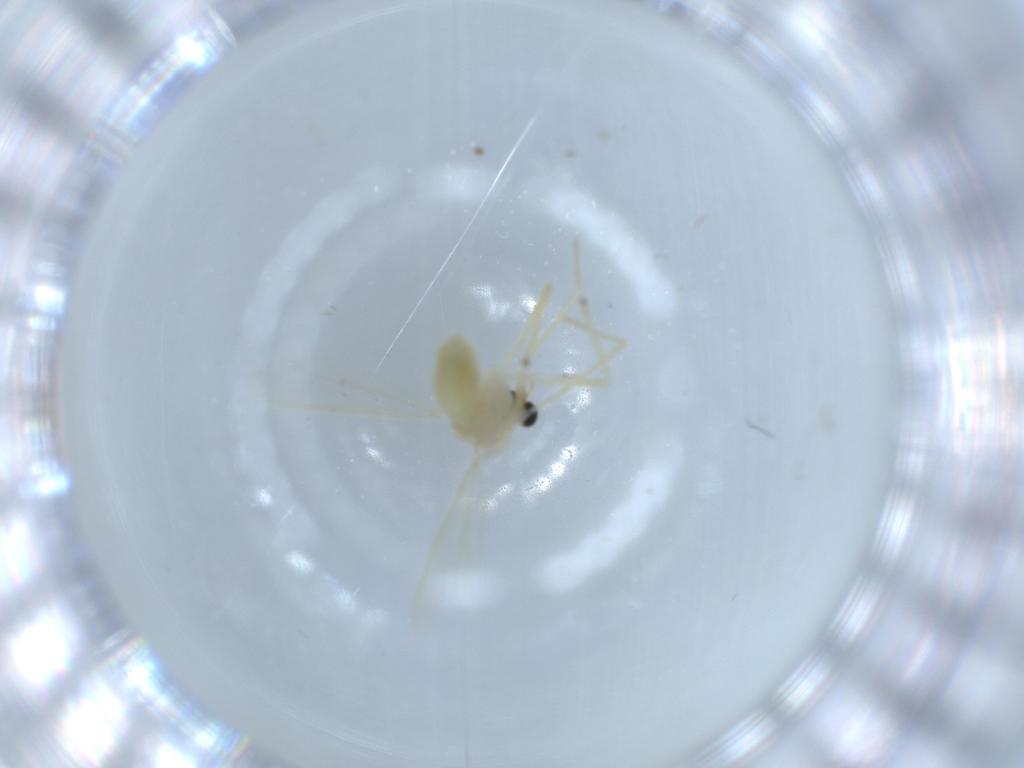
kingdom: Animalia
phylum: Arthropoda
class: Insecta
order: Diptera
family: Chironomidae
